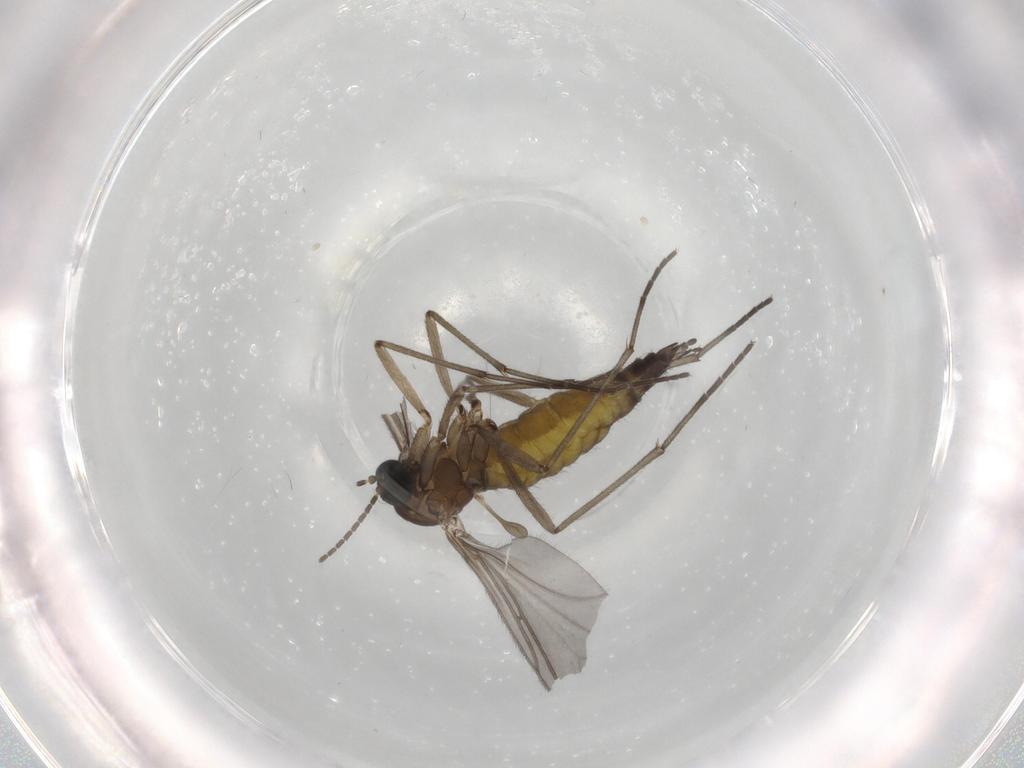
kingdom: Animalia
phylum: Arthropoda
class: Insecta
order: Diptera
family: Sciaridae
